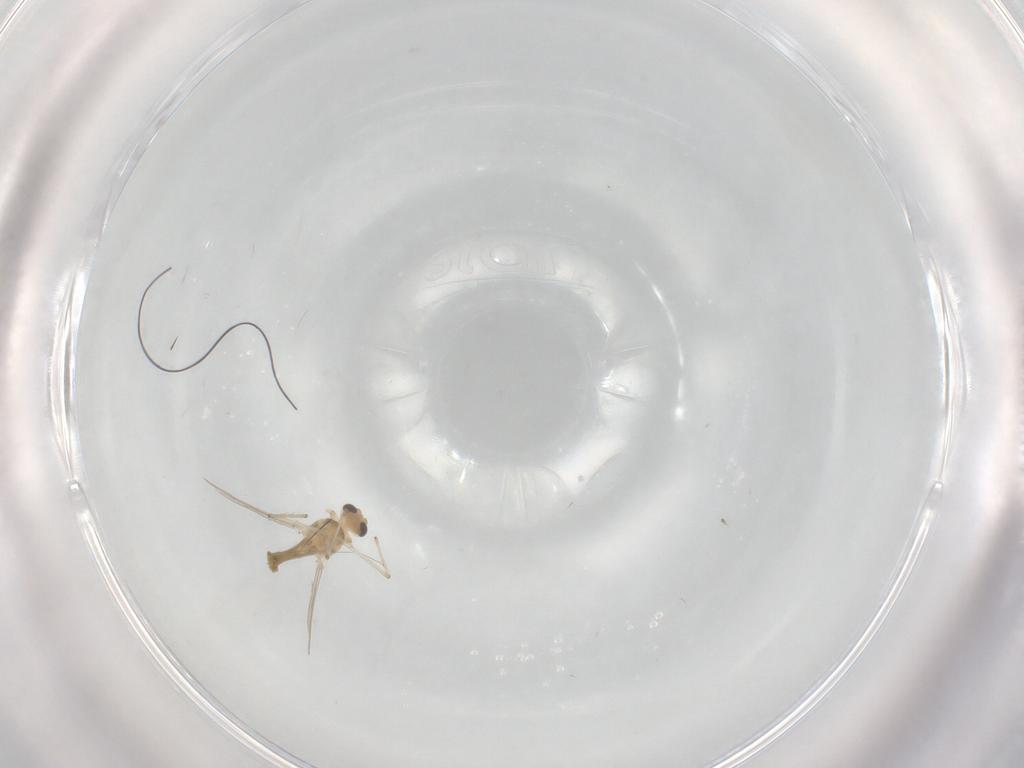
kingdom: Animalia
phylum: Arthropoda
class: Insecta
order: Diptera
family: Chironomidae
